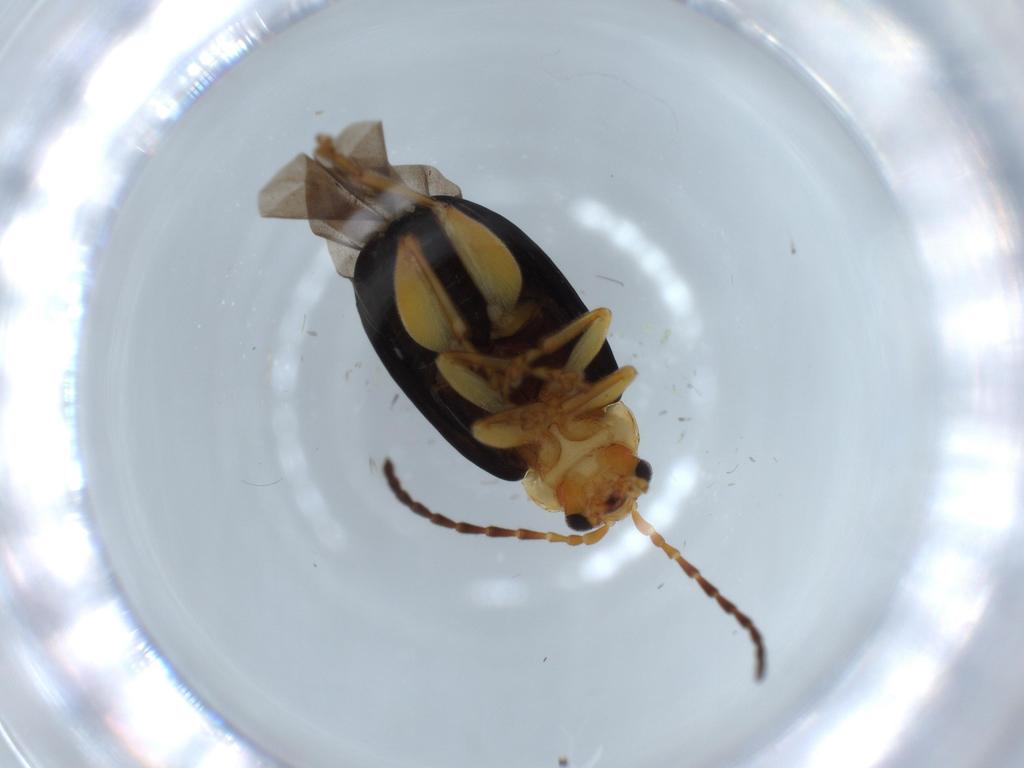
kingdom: Animalia
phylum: Arthropoda
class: Insecta
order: Coleoptera
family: Chrysomelidae
